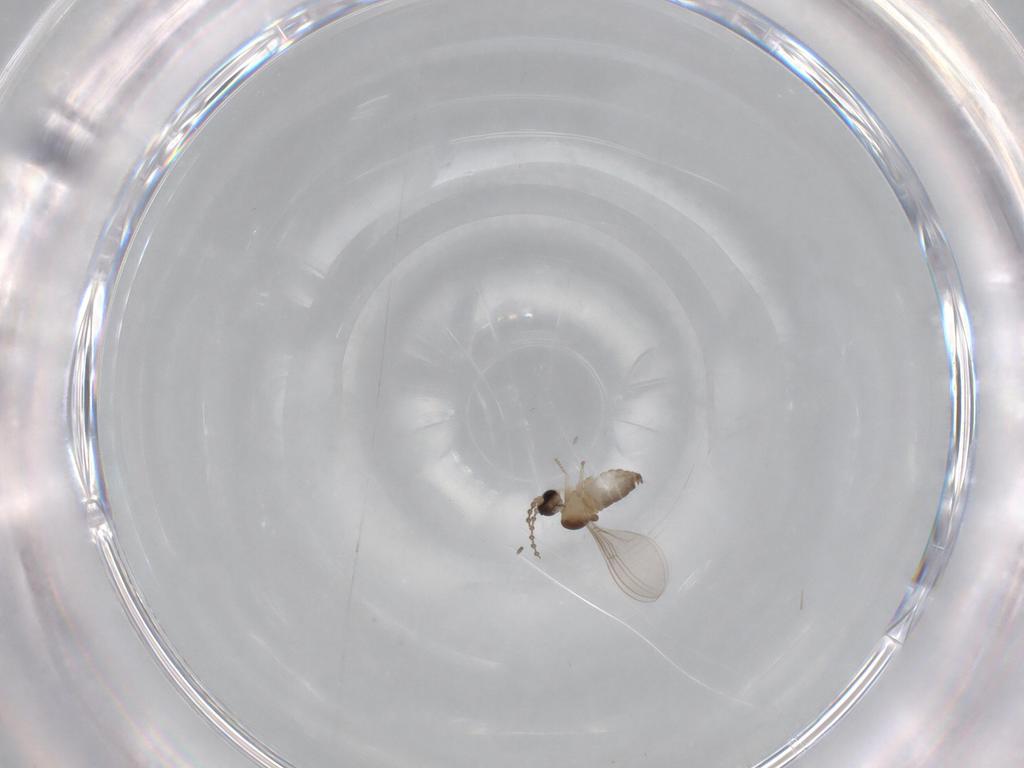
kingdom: Animalia
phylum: Arthropoda
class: Insecta
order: Diptera
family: Cecidomyiidae
